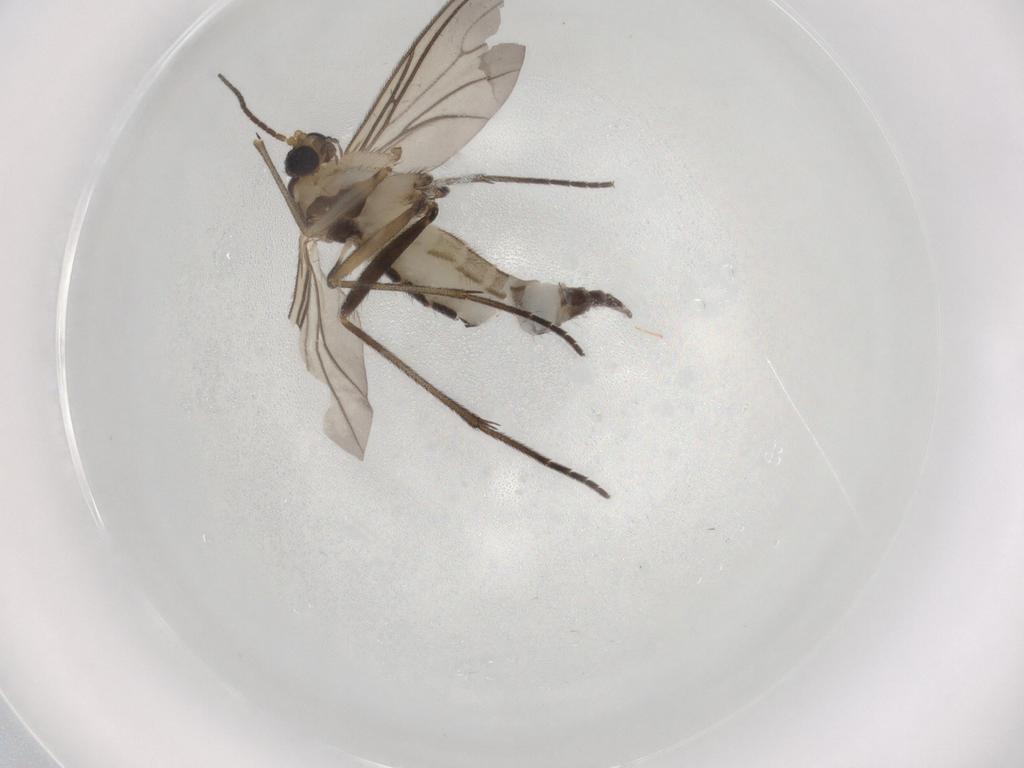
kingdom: Animalia
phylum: Arthropoda
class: Insecta
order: Diptera
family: Sciaridae
